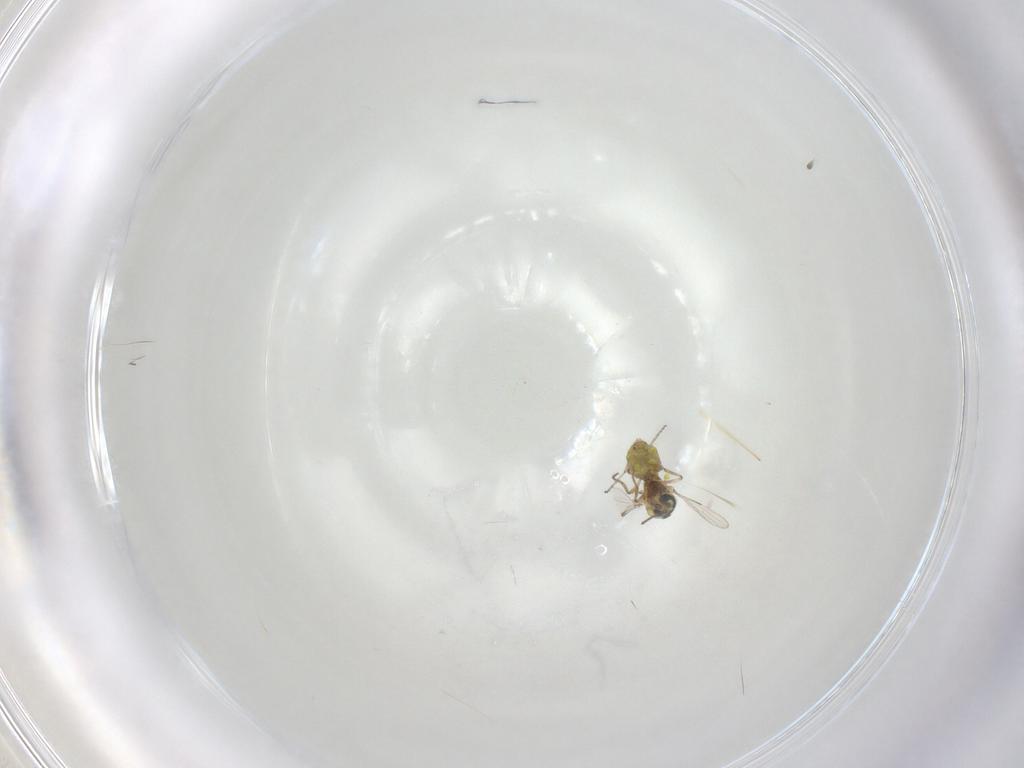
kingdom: Animalia
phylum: Arthropoda
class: Insecta
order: Diptera
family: Ceratopogonidae
